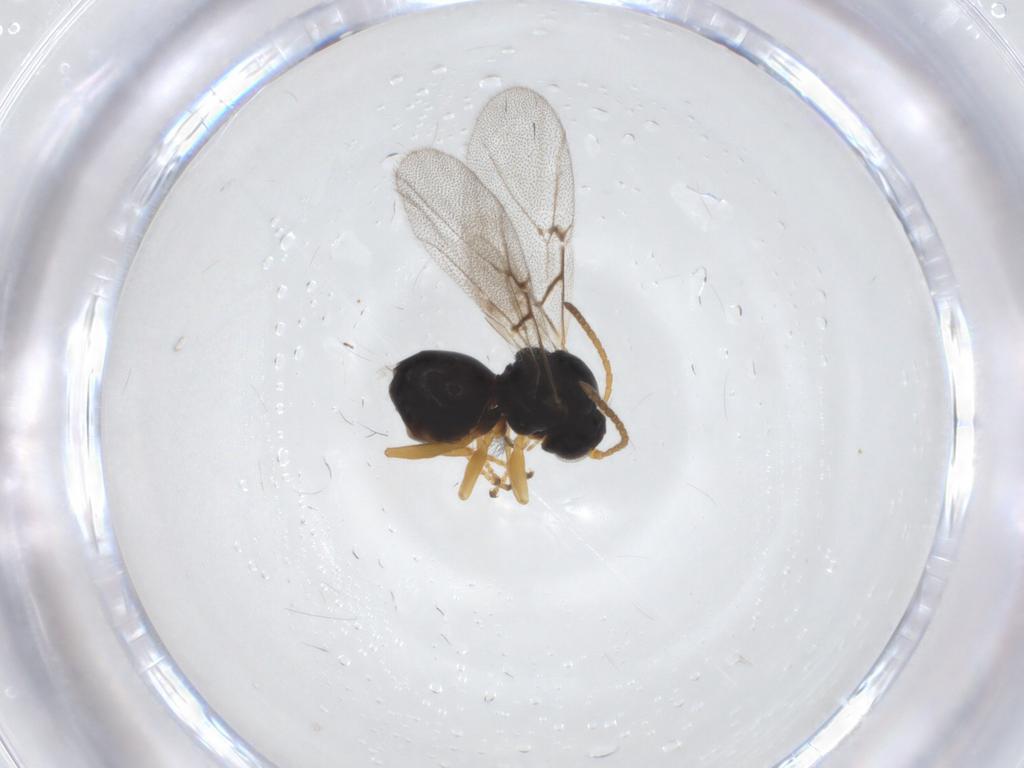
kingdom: Animalia
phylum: Arthropoda
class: Insecta
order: Hymenoptera
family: Cynipidae
